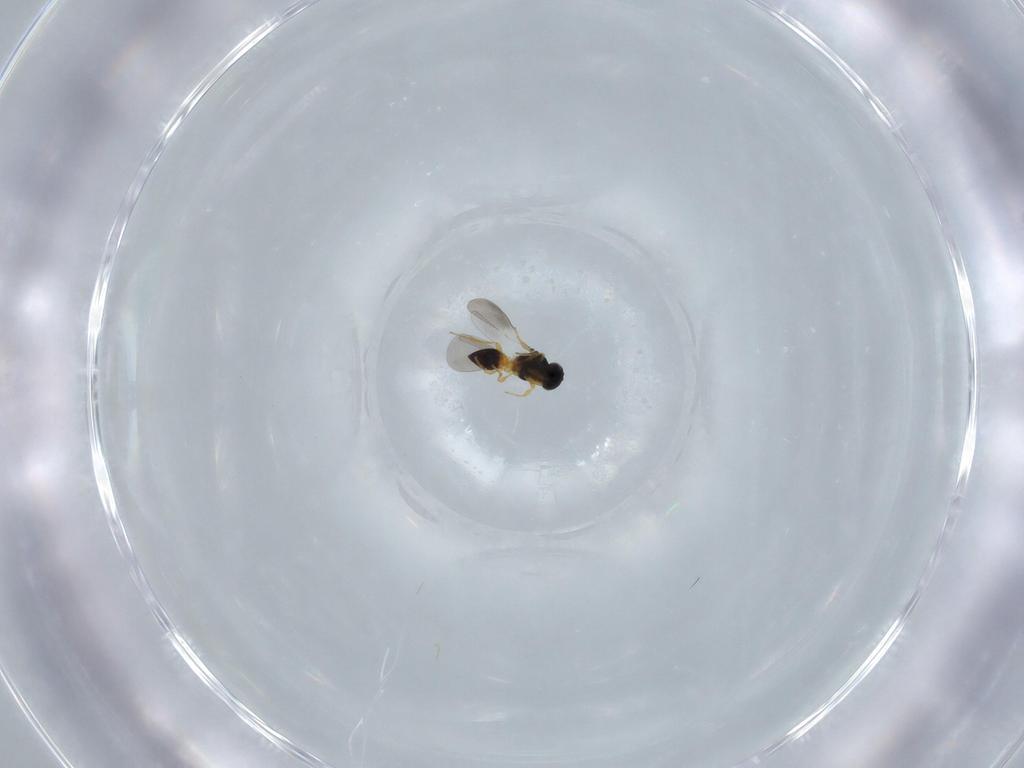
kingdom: Animalia
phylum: Arthropoda
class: Insecta
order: Hymenoptera
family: Platygastridae
